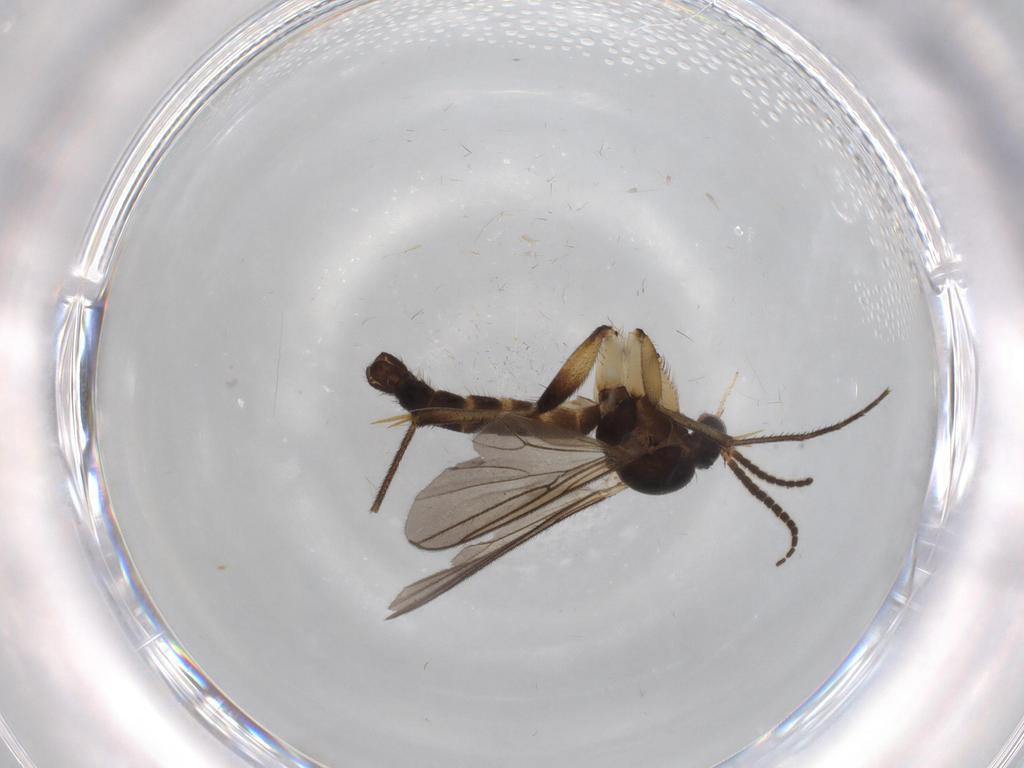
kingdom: Animalia
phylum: Arthropoda
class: Insecta
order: Diptera
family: Mycetophilidae
